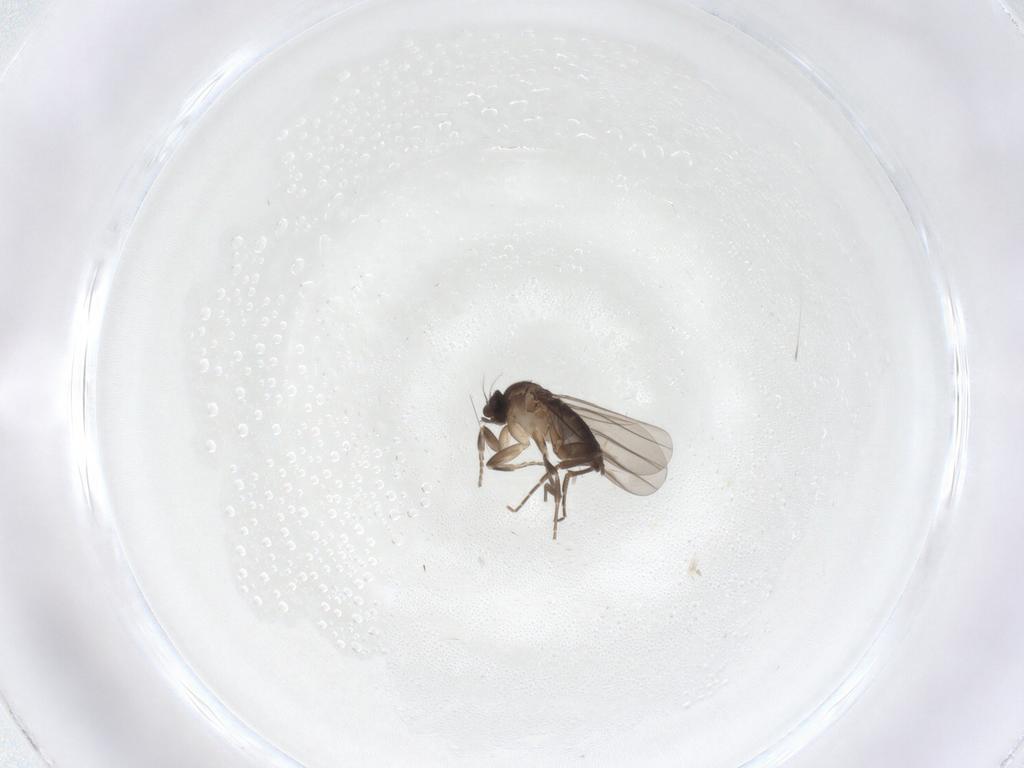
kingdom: Animalia
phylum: Arthropoda
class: Insecta
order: Diptera
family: Phoridae
